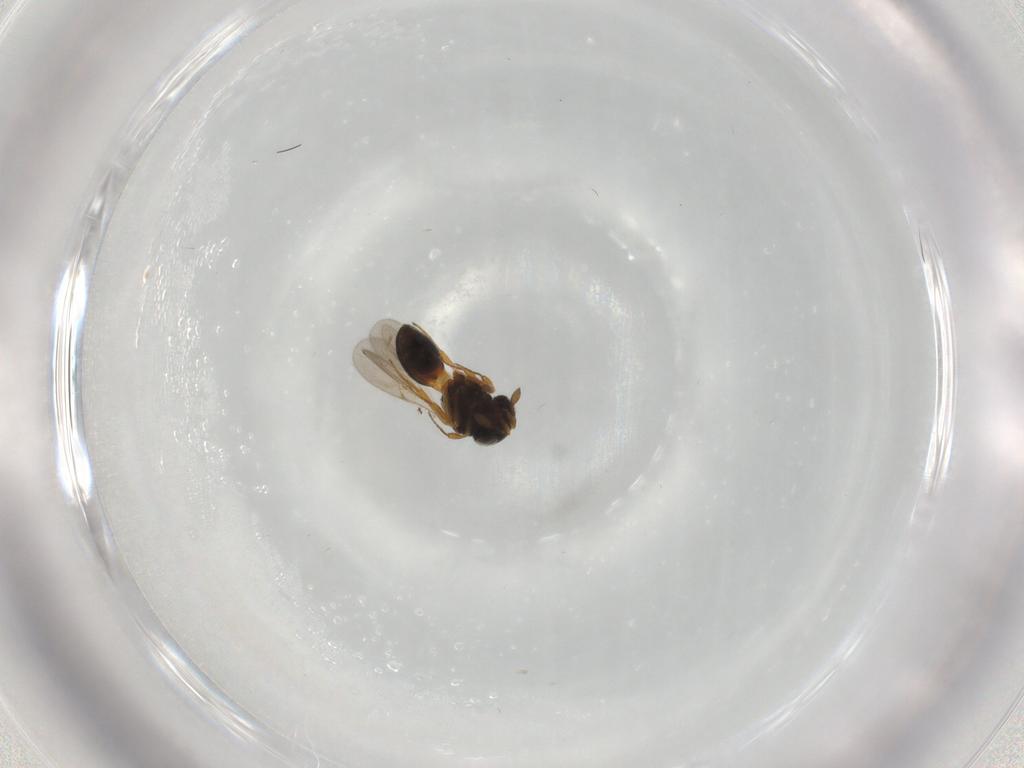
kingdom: Animalia
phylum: Arthropoda
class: Insecta
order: Hymenoptera
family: Scelionidae
